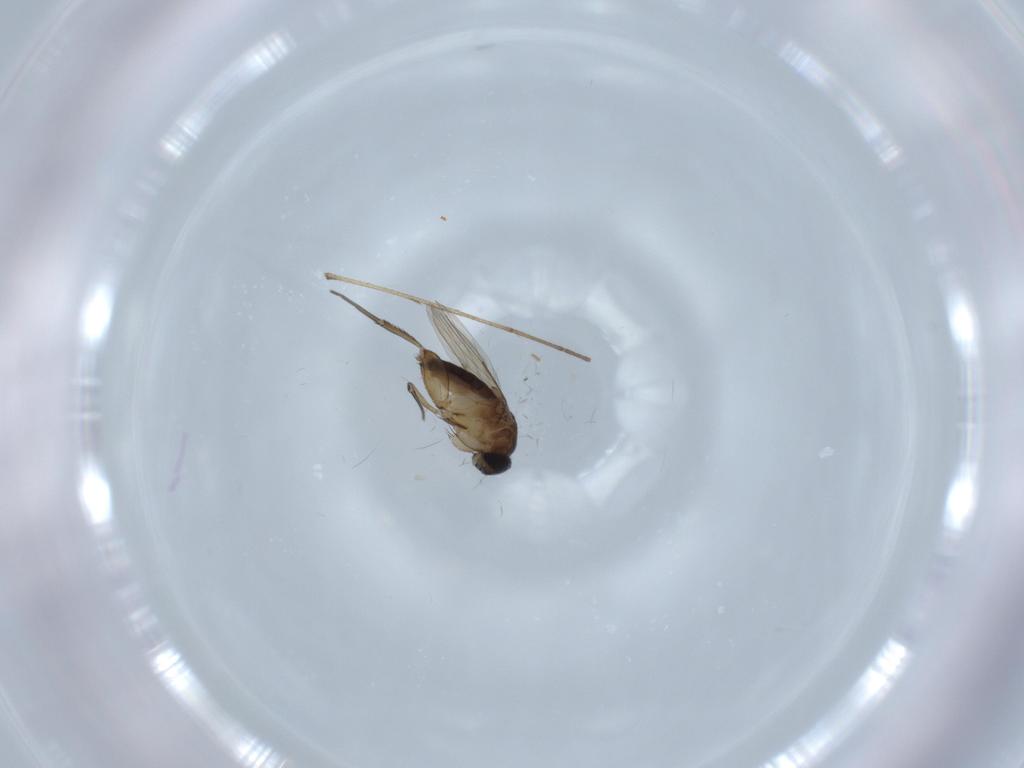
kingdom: Animalia
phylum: Arthropoda
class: Insecta
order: Diptera
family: Phoridae
